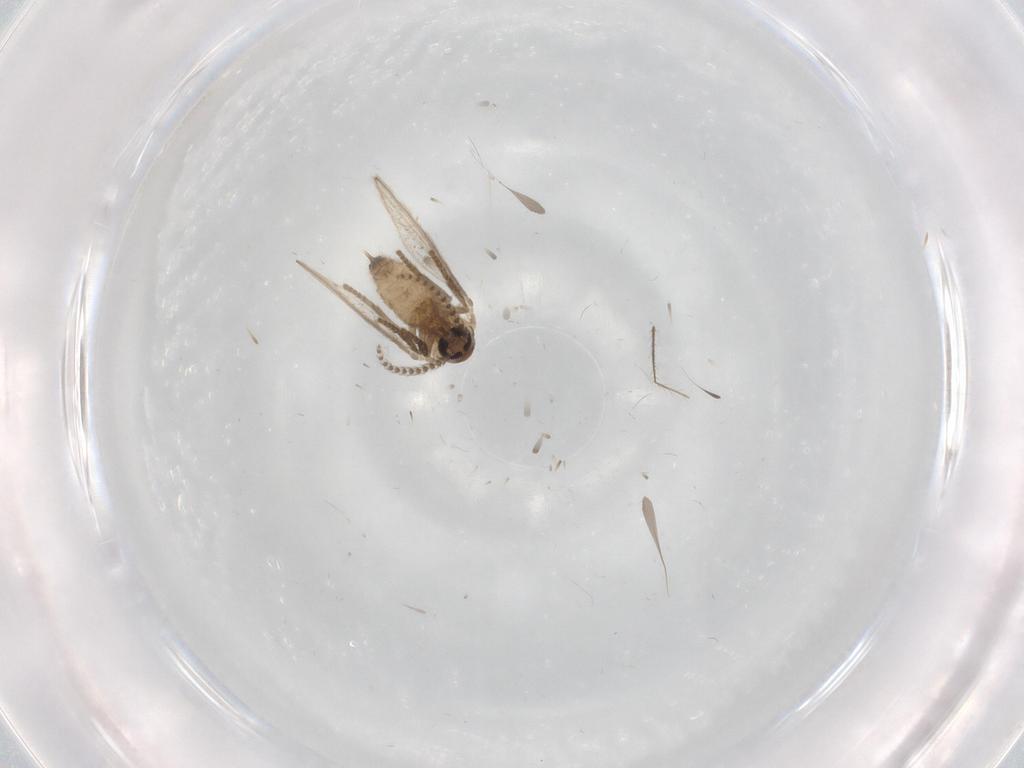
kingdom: Animalia
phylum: Arthropoda
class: Insecta
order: Diptera
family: Psychodidae
